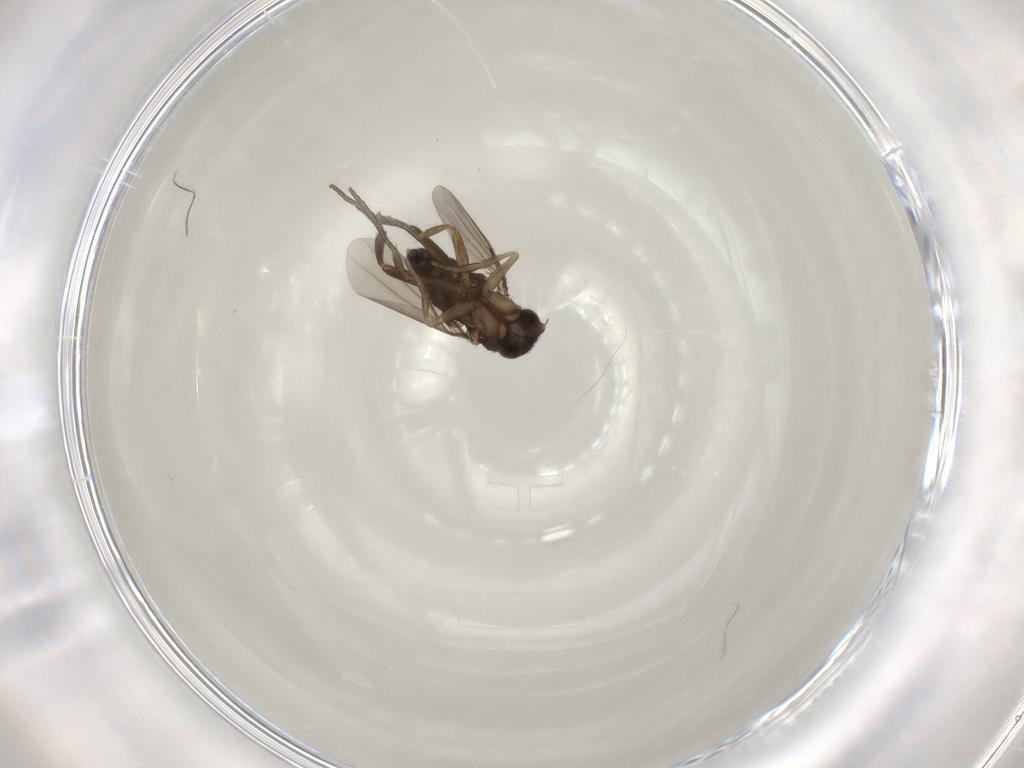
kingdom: Animalia
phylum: Arthropoda
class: Insecta
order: Diptera
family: Phoridae
